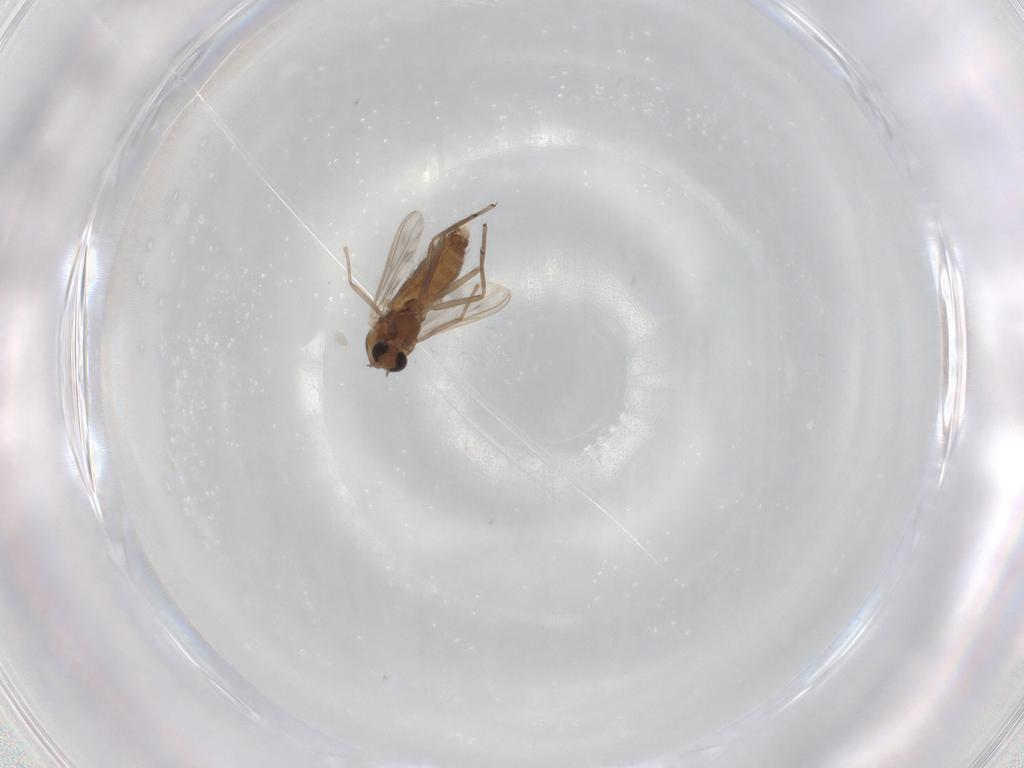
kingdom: Animalia
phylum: Arthropoda
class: Insecta
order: Diptera
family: Chironomidae
